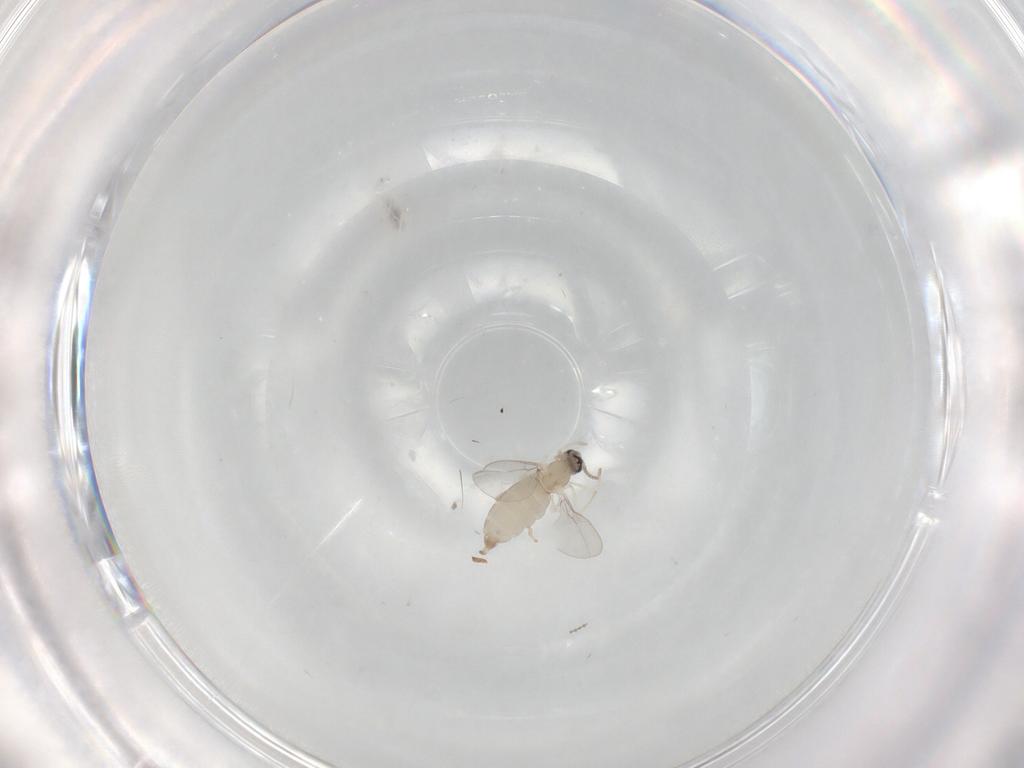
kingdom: Animalia
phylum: Arthropoda
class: Insecta
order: Diptera
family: Cecidomyiidae
